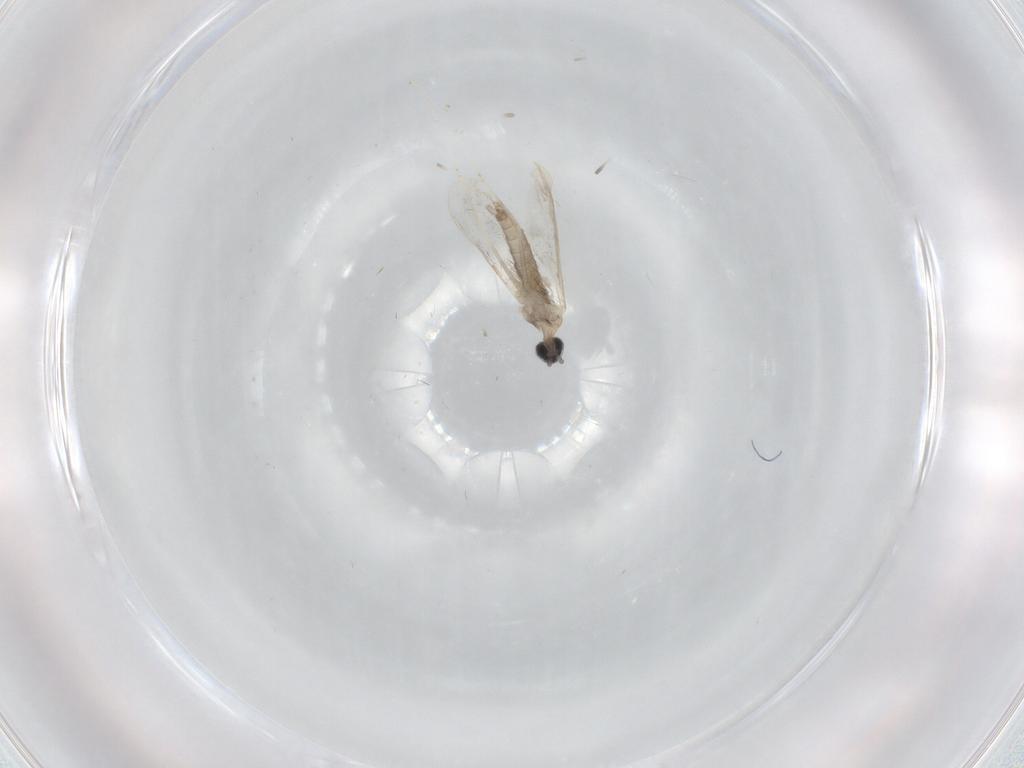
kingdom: Animalia
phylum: Arthropoda
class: Insecta
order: Diptera
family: Cecidomyiidae
